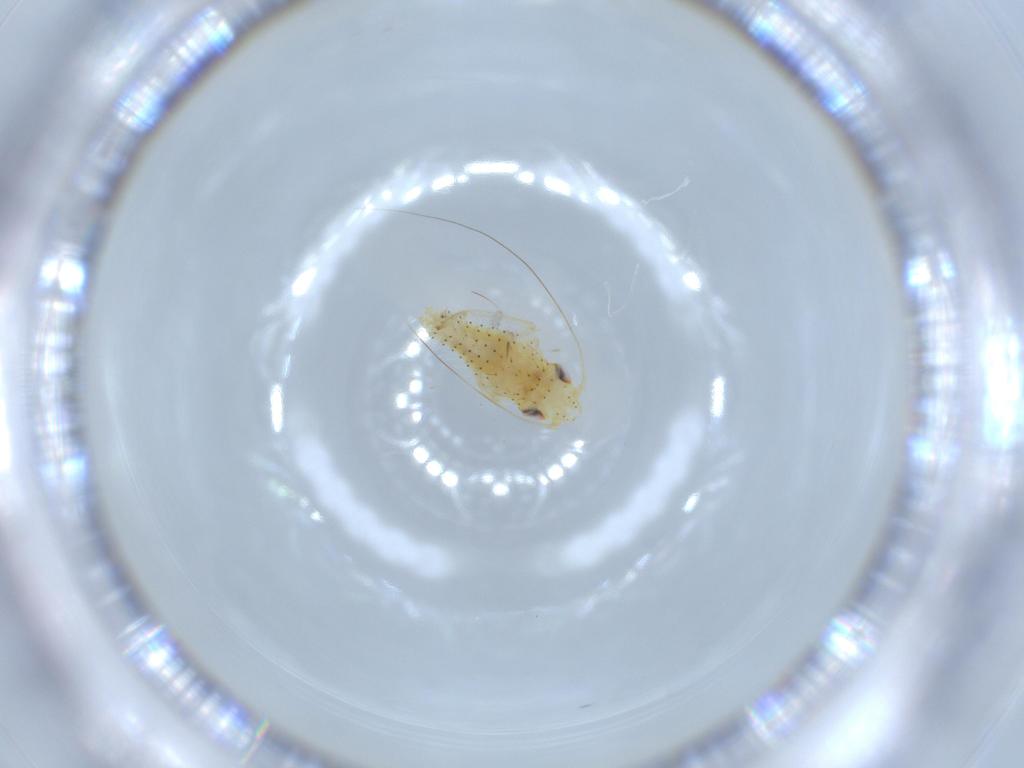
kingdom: Animalia
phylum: Arthropoda
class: Insecta
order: Hemiptera
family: Cicadellidae
